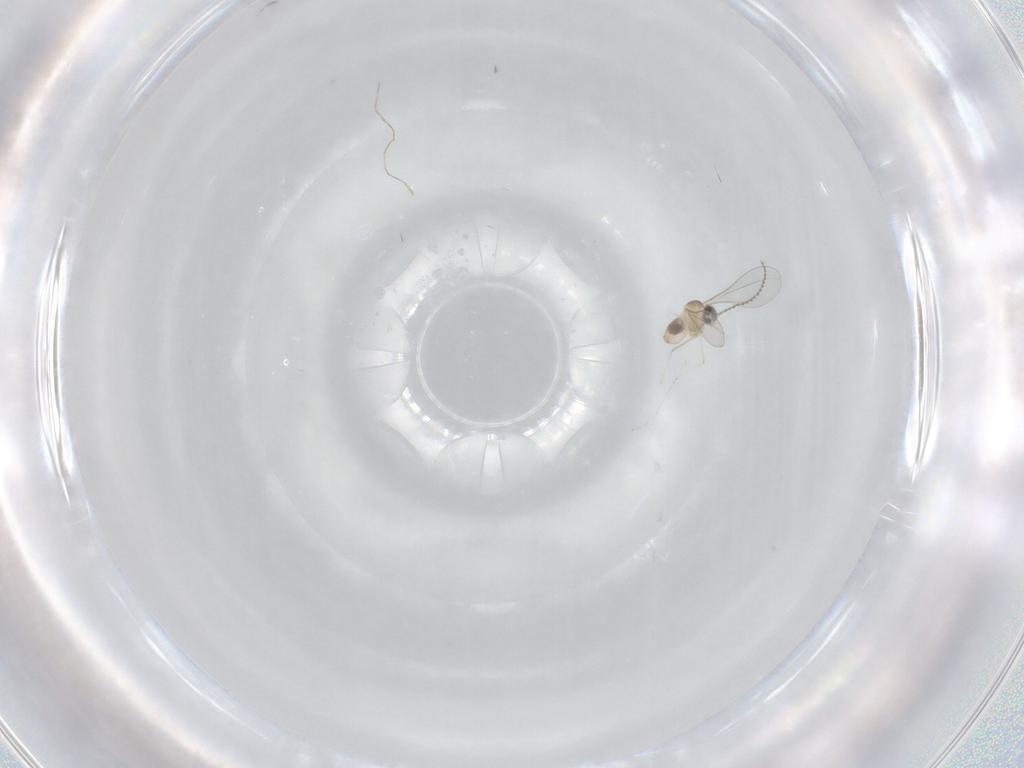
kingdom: Animalia
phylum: Arthropoda
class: Insecta
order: Diptera
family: Cecidomyiidae
